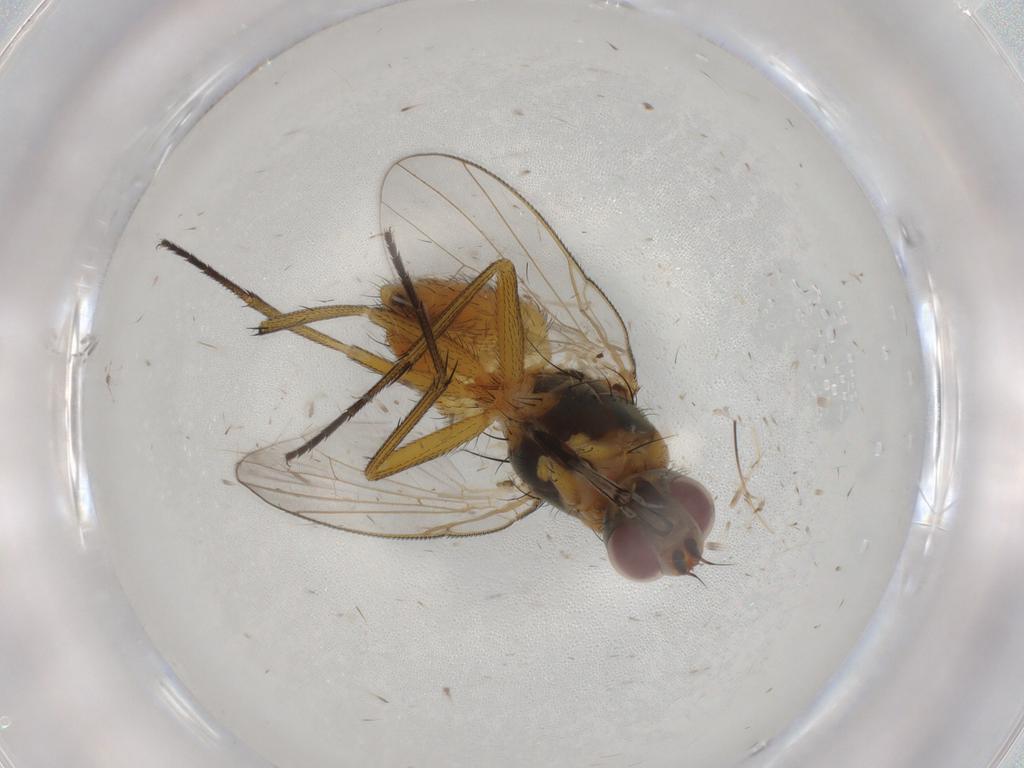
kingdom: Animalia
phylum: Arthropoda
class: Insecta
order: Diptera
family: Muscidae
